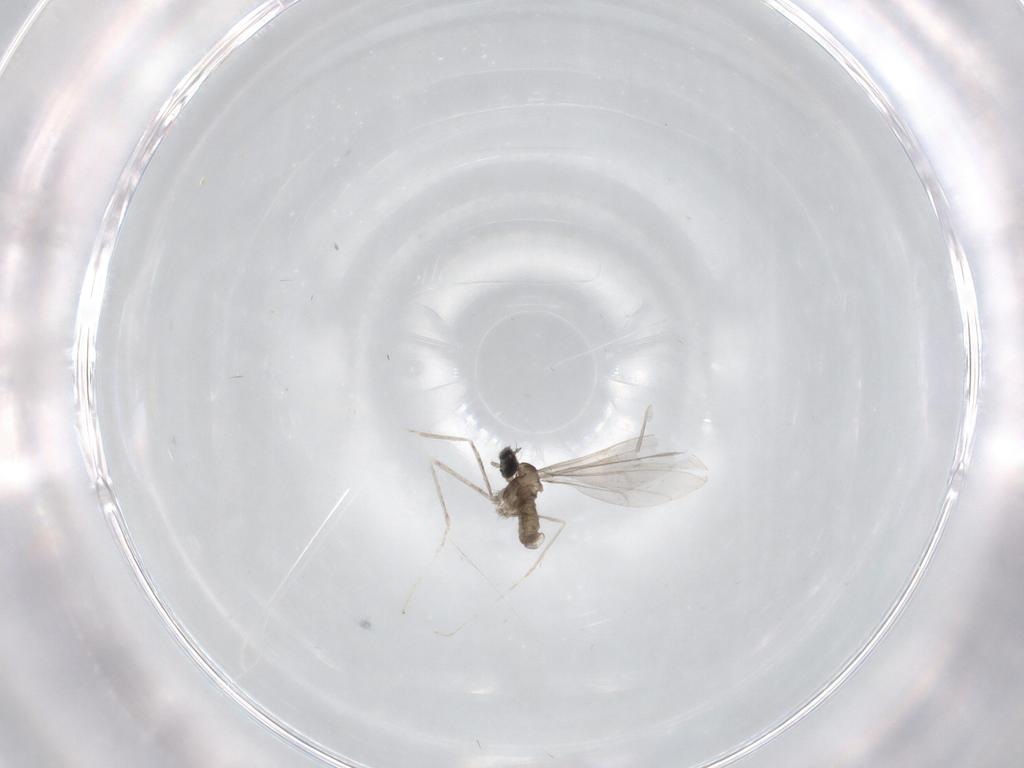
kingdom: Animalia
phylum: Arthropoda
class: Insecta
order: Diptera
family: Cecidomyiidae
